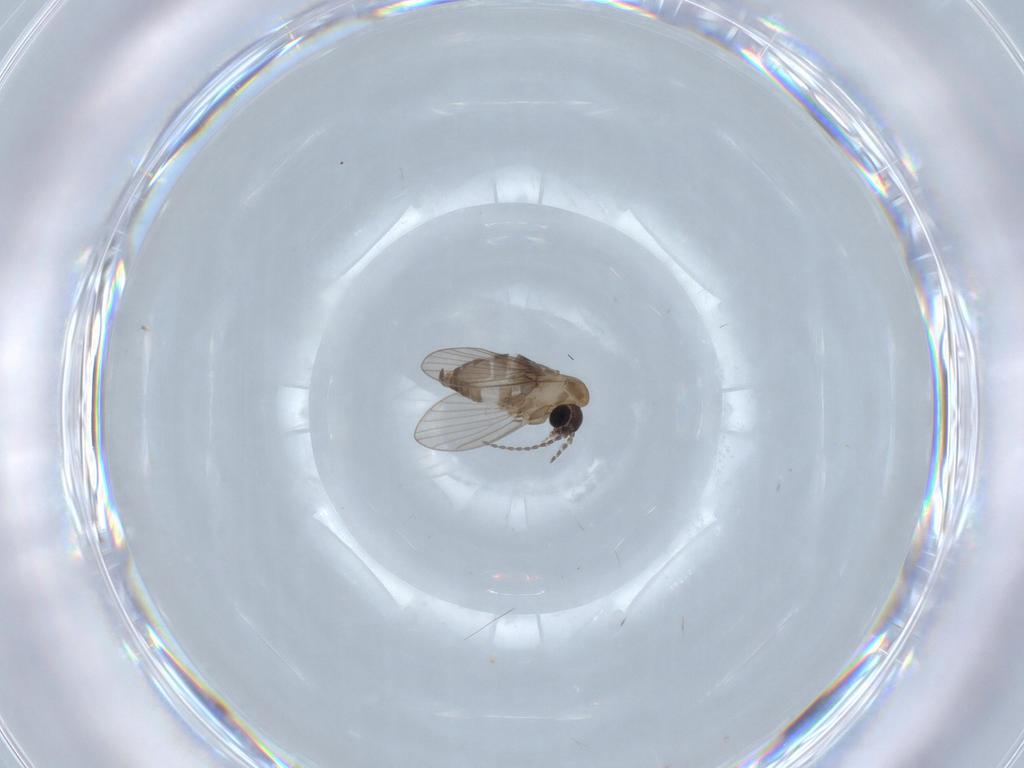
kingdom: Animalia
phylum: Arthropoda
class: Insecta
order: Diptera
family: Psychodidae
